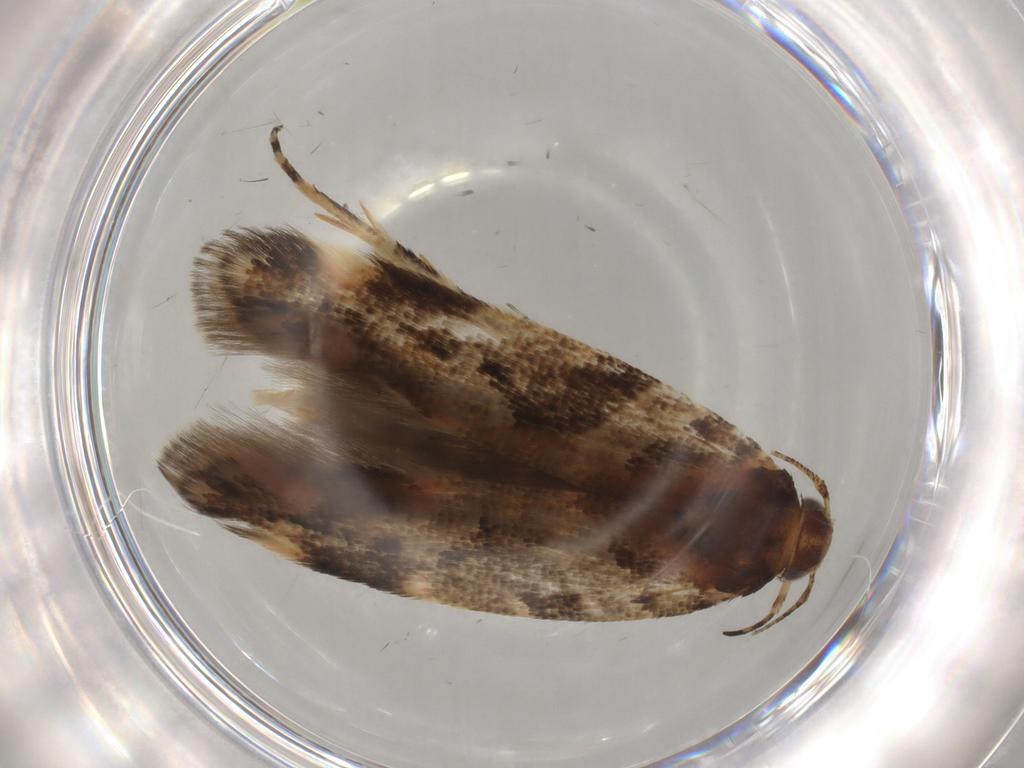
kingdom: Animalia
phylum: Arthropoda
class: Insecta
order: Lepidoptera
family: Gelechiidae
